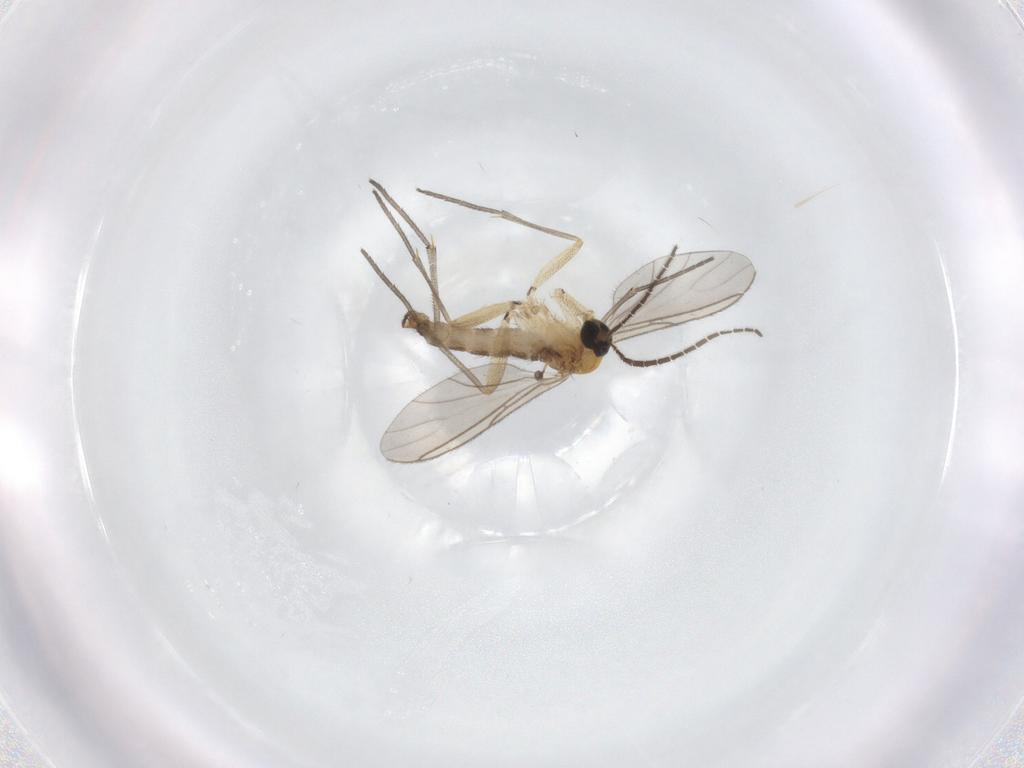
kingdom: Animalia
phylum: Arthropoda
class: Insecta
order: Diptera
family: Limoniidae
